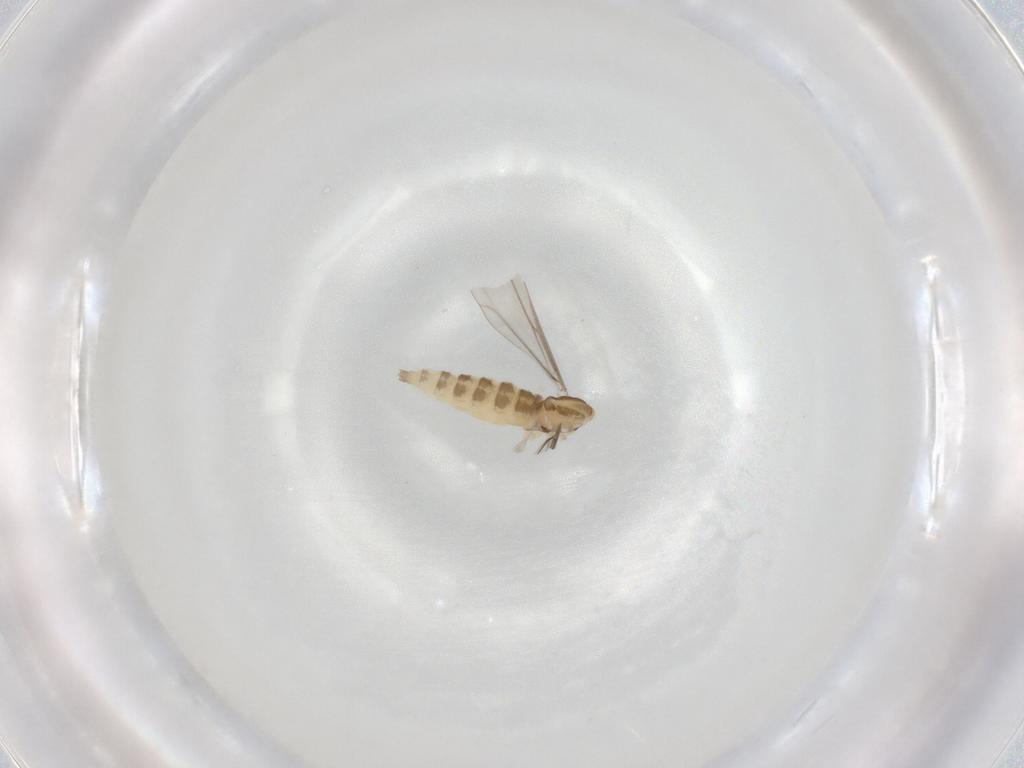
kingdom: Animalia
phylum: Arthropoda
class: Insecta
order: Diptera
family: Cecidomyiidae
